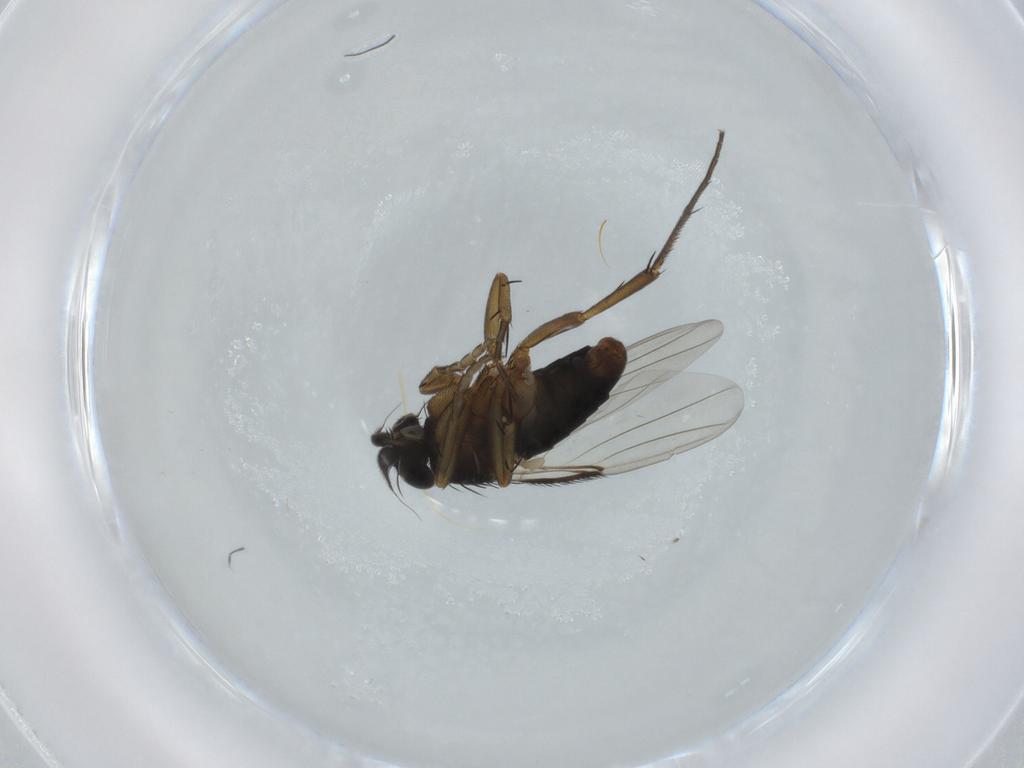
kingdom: Animalia
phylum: Arthropoda
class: Insecta
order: Diptera
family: Phoridae
